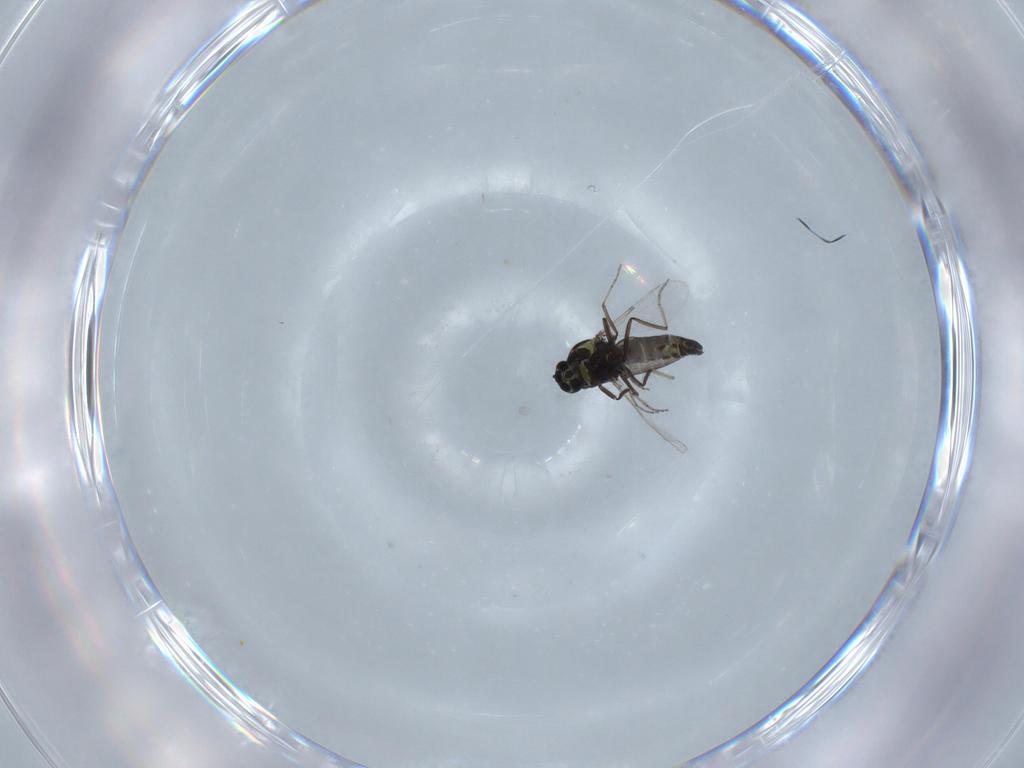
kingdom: Animalia
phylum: Arthropoda
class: Insecta
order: Diptera
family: Ceratopogonidae
